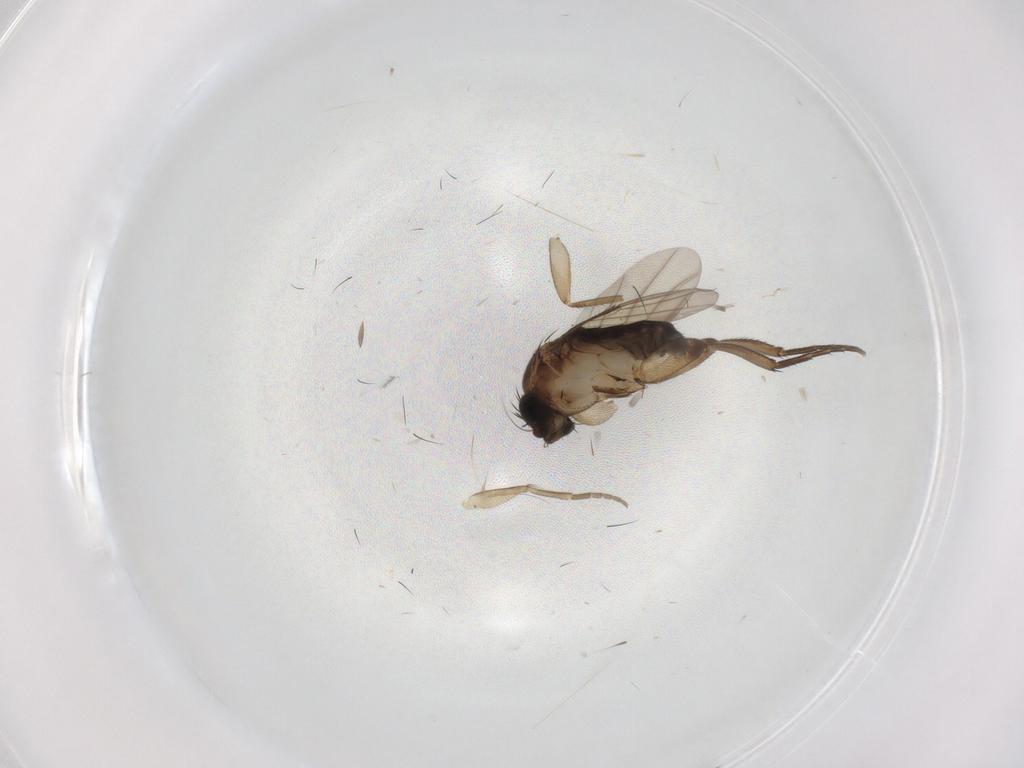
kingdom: Animalia
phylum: Arthropoda
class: Insecta
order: Diptera
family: Phoridae
